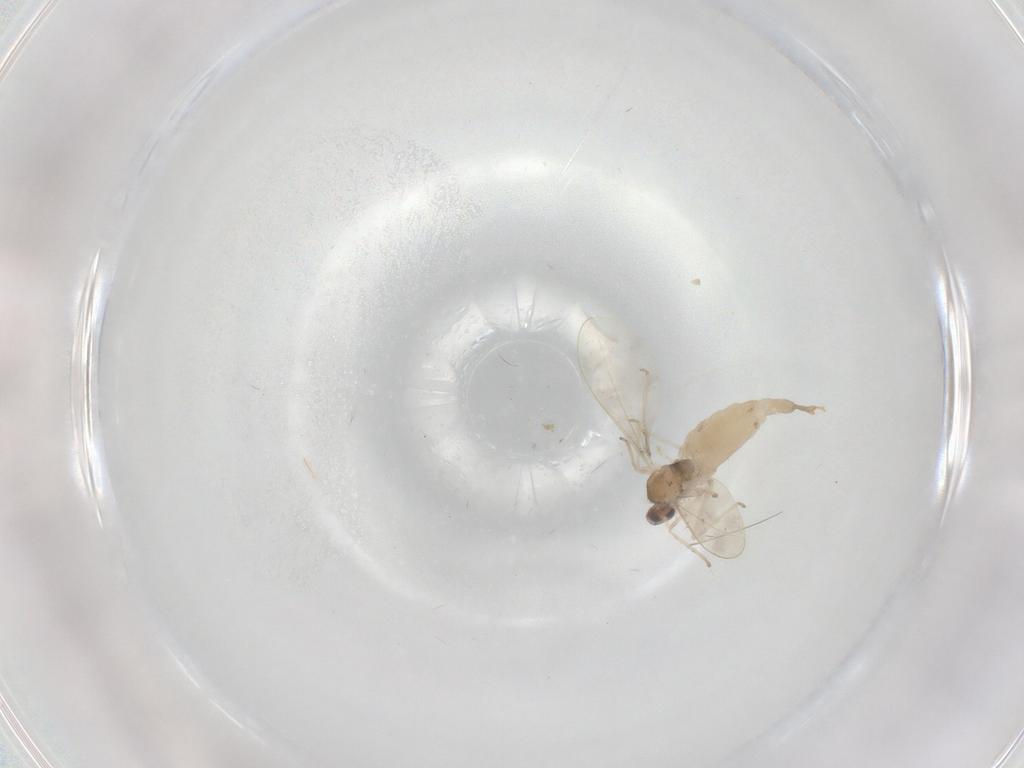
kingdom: Animalia
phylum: Arthropoda
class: Insecta
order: Diptera
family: Cecidomyiidae
